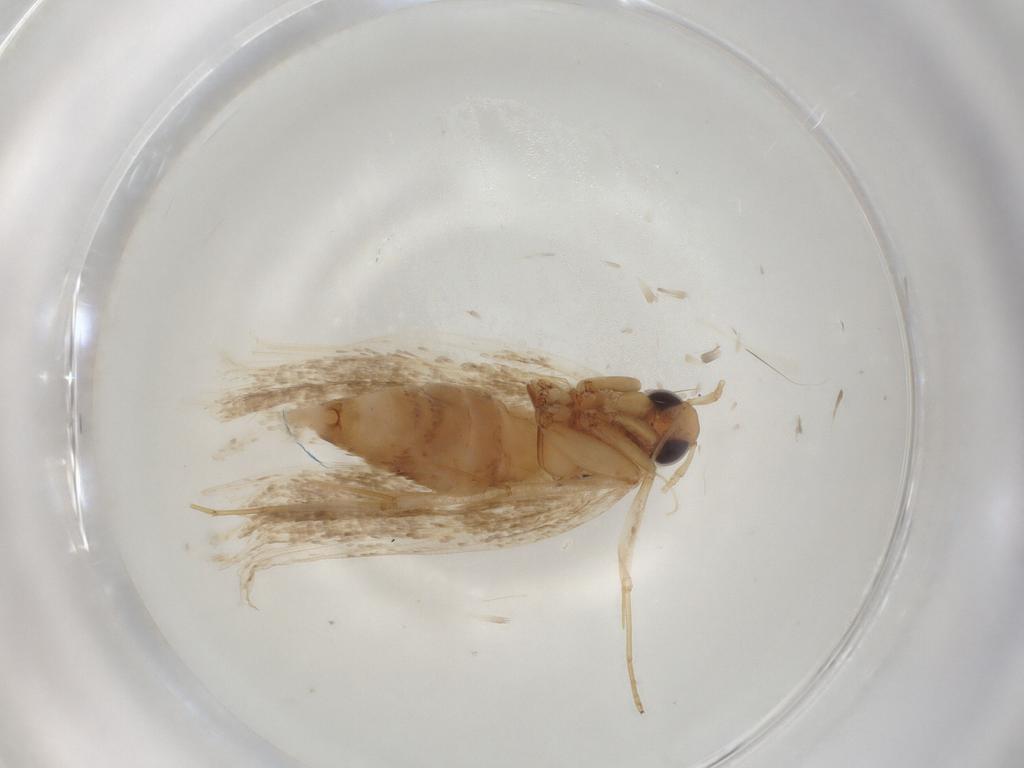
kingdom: Animalia
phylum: Arthropoda
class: Insecta
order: Lepidoptera
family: Lecithoceridae
